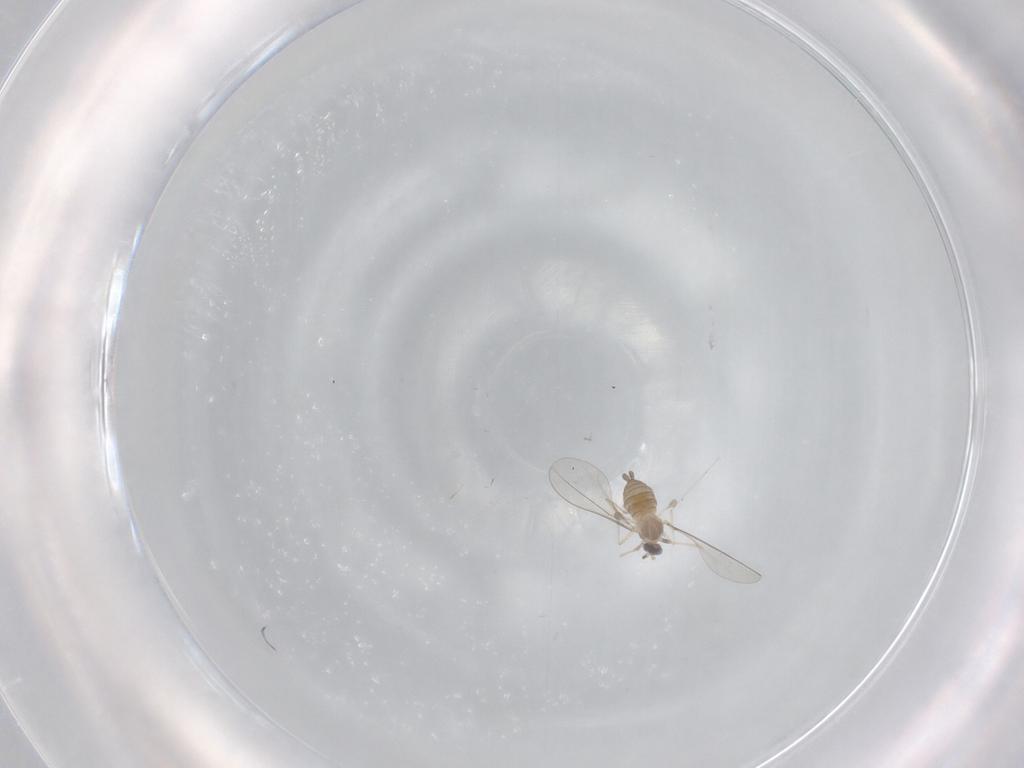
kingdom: Animalia
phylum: Arthropoda
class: Insecta
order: Diptera
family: Cecidomyiidae
